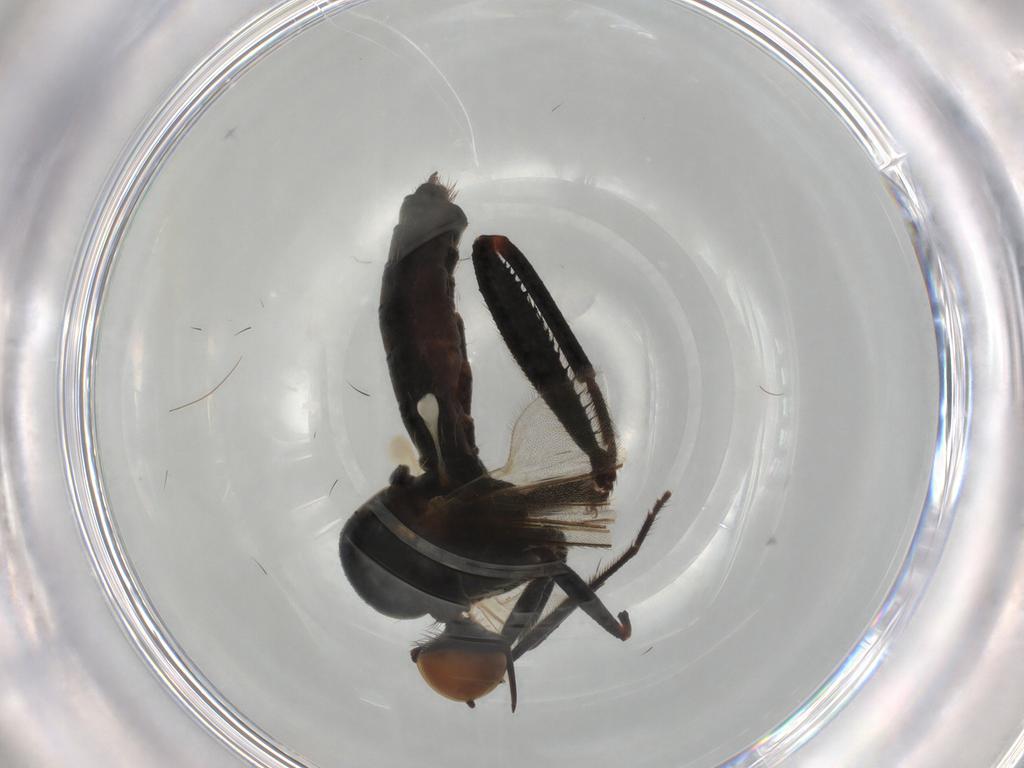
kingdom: Animalia
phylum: Arthropoda
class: Insecta
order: Diptera
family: Sciaridae
